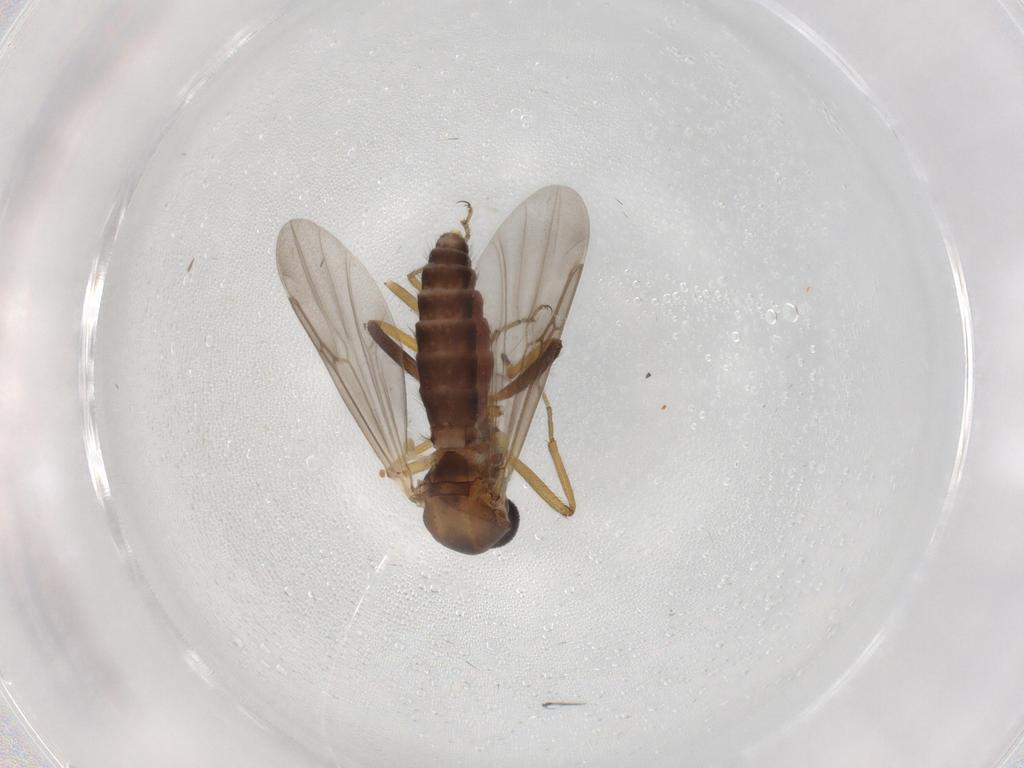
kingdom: Animalia
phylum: Arthropoda
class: Insecta
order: Diptera
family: Ceratopogonidae
